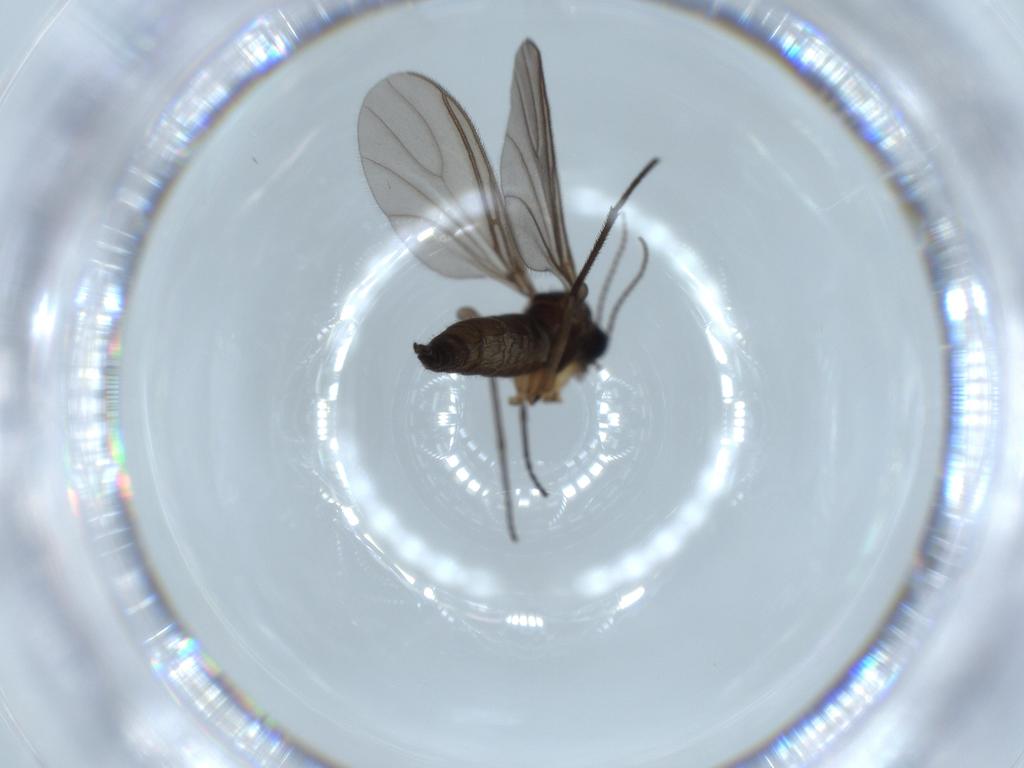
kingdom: Animalia
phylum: Arthropoda
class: Insecta
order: Diptera
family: Sciaridae
